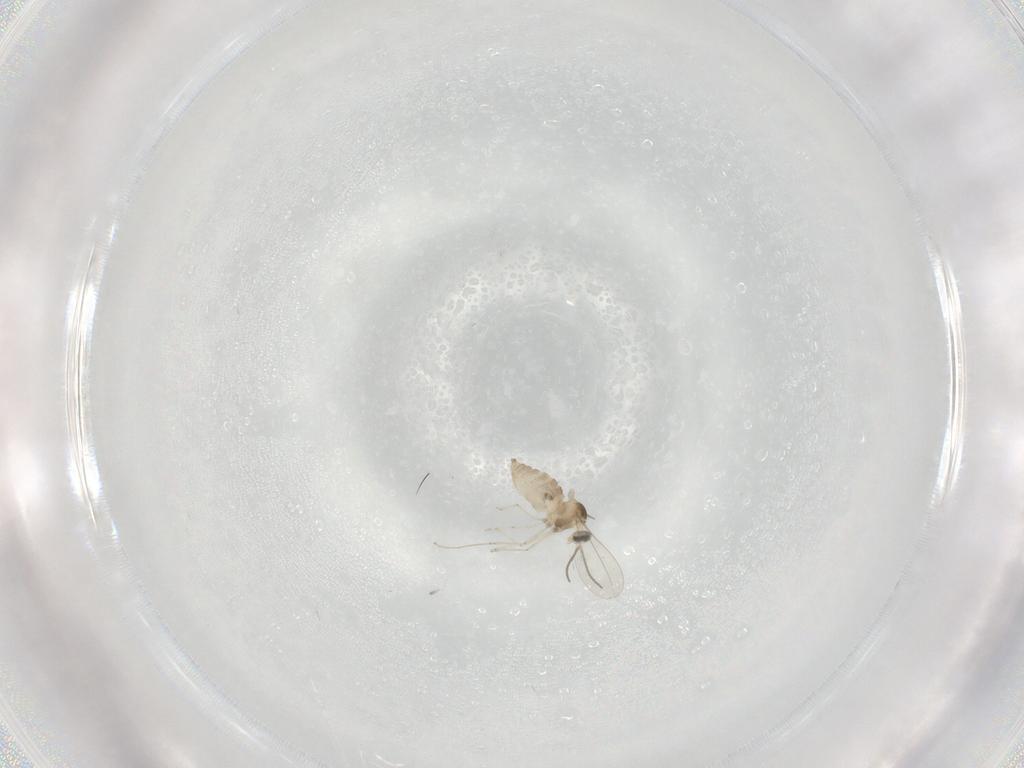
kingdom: Animalia
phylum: Arthropoda
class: Insecta
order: Diptera
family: Cecidomyiidae
